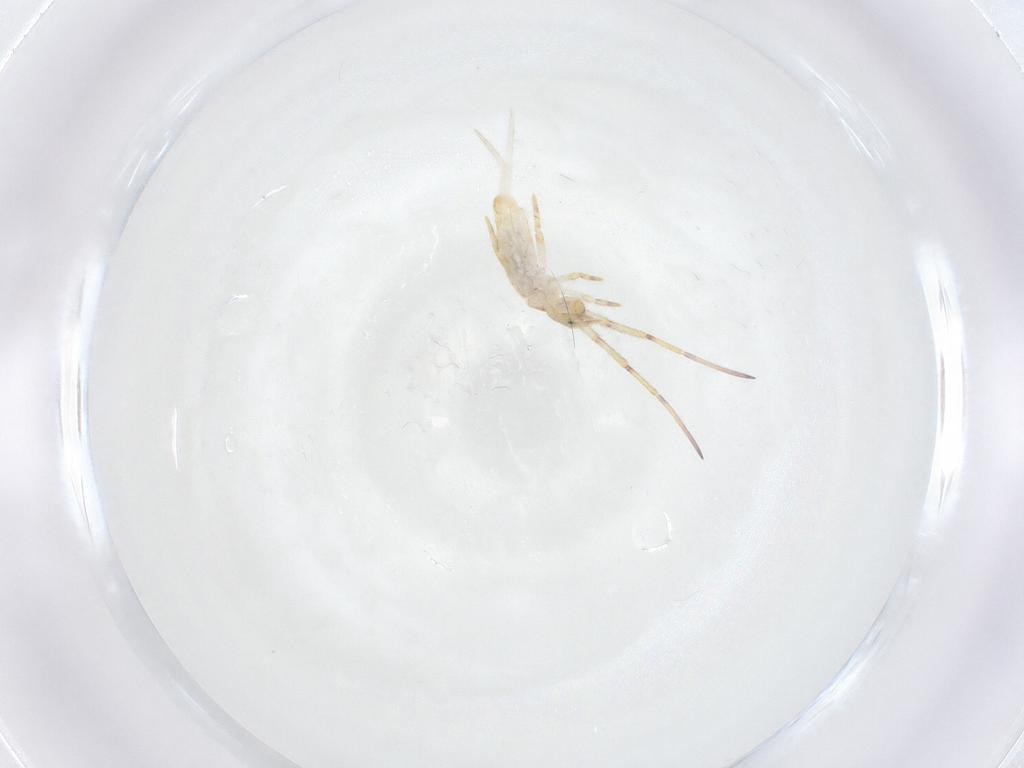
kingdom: Animalia
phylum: Arthropoda
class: Collembola
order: Entomobryomorpha
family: Entomobryidae
